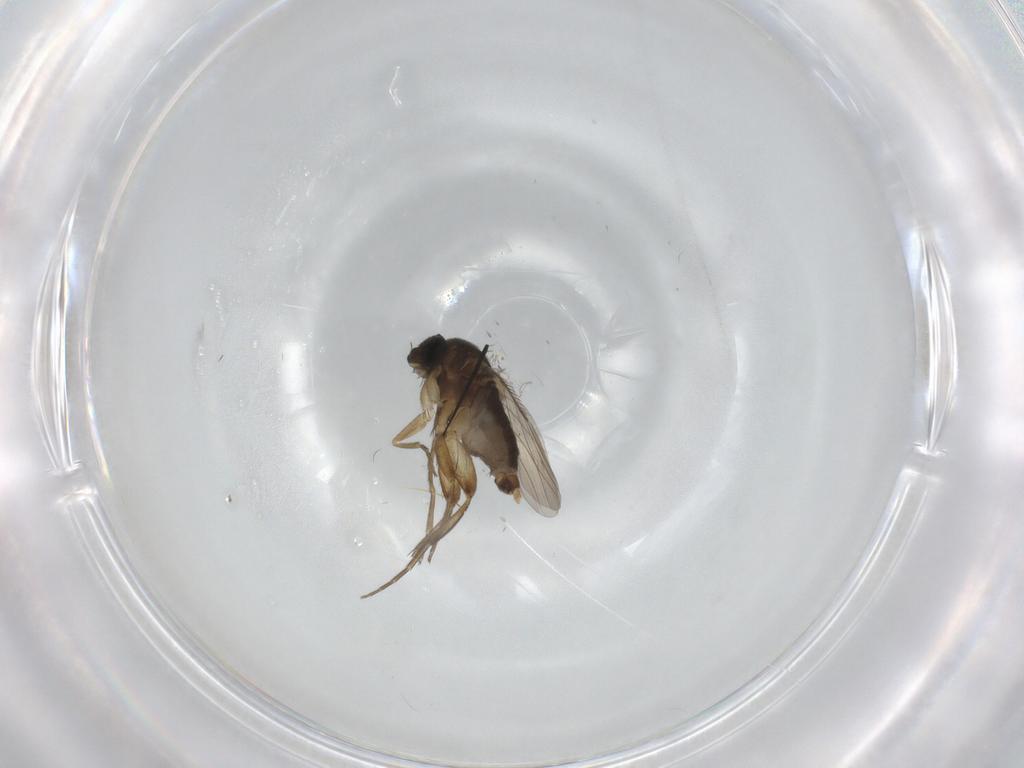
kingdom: Animalia
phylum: Arthropoda
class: Insecta
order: Diptera
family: Phoridae
